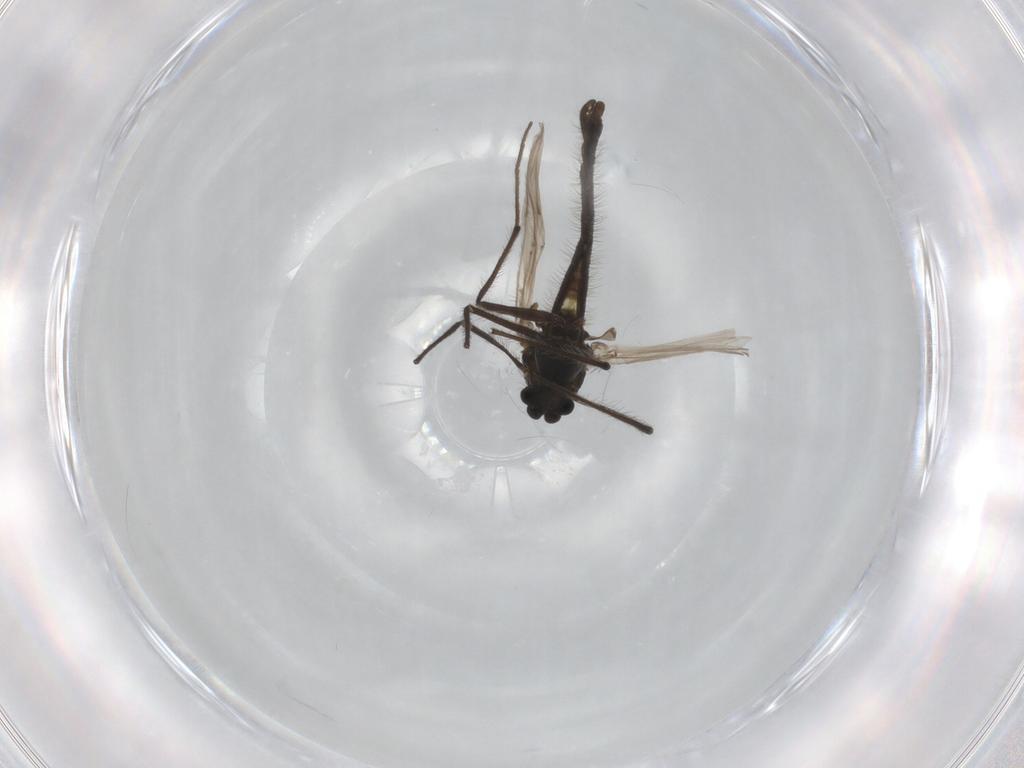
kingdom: Animalia
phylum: Arthropoda
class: Insecta
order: Diptera
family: Chironomidae
